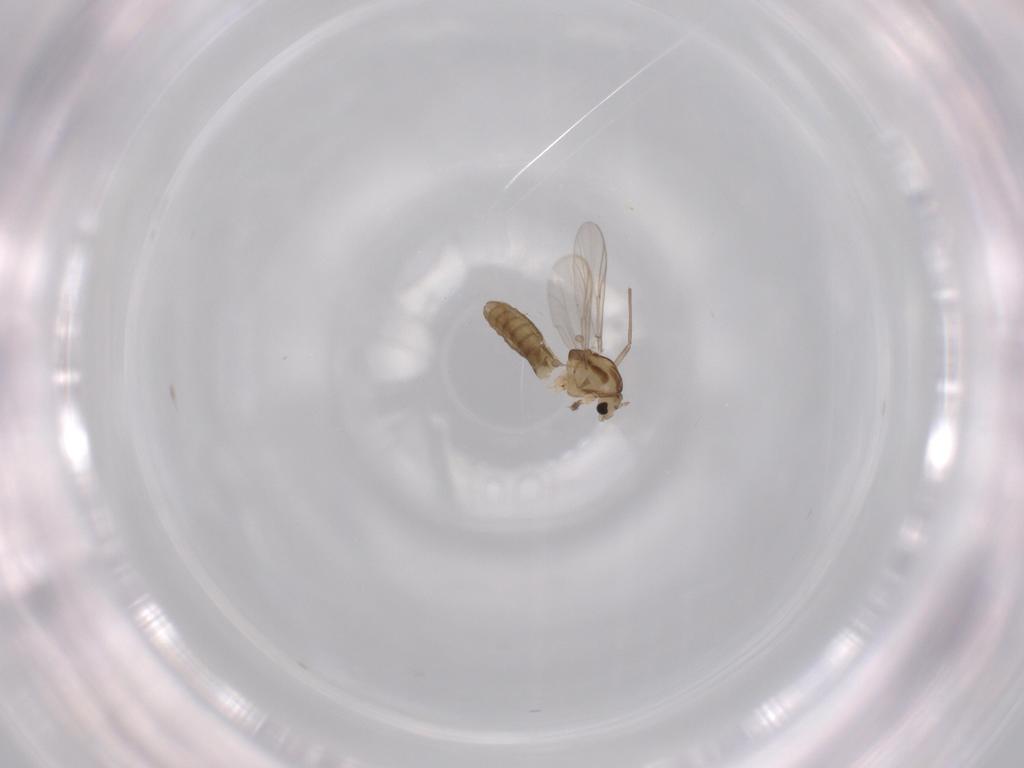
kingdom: Animalia
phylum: Arthropoda
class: Insecta
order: Diptera
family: Chironomidae
